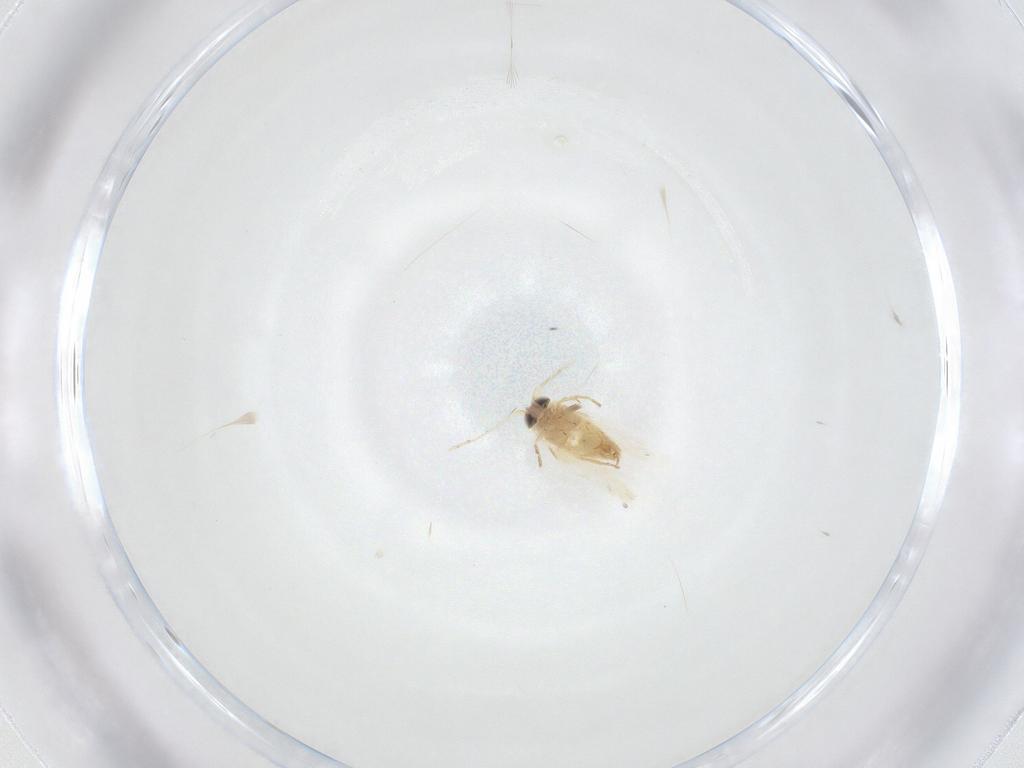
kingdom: Animalia
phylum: Arthropoda
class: Insecta
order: Lepidoptera
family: Crambidae
